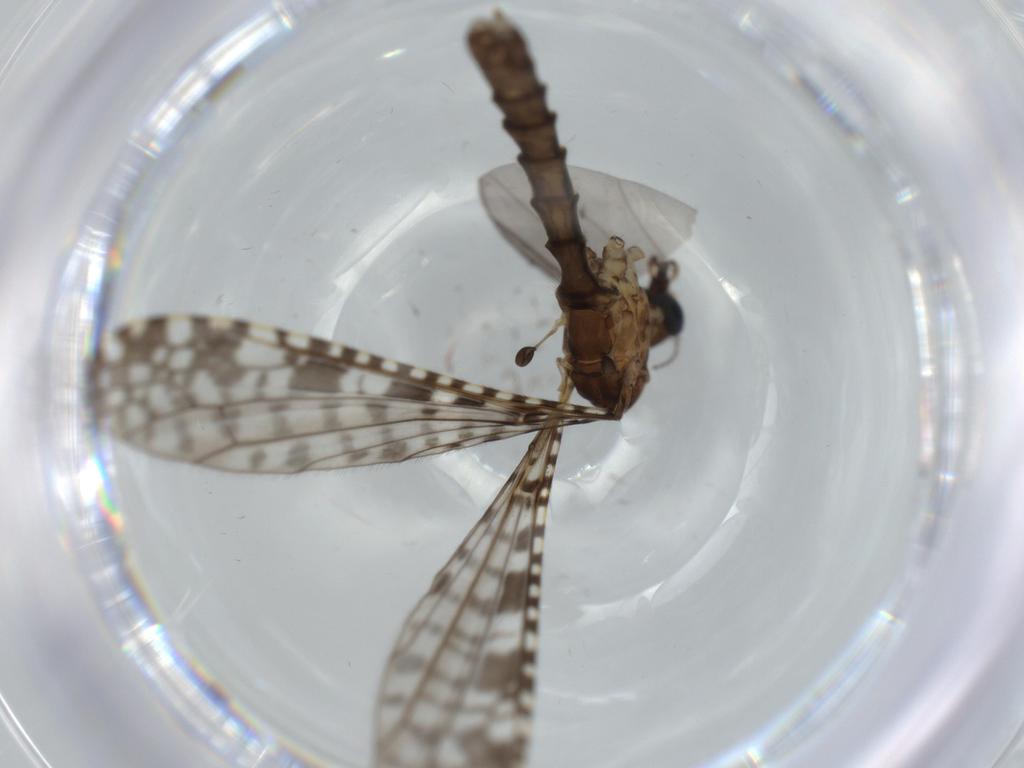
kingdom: Animalia
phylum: Arthropoda
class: Insecta
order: Diptera
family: Limoniidae
